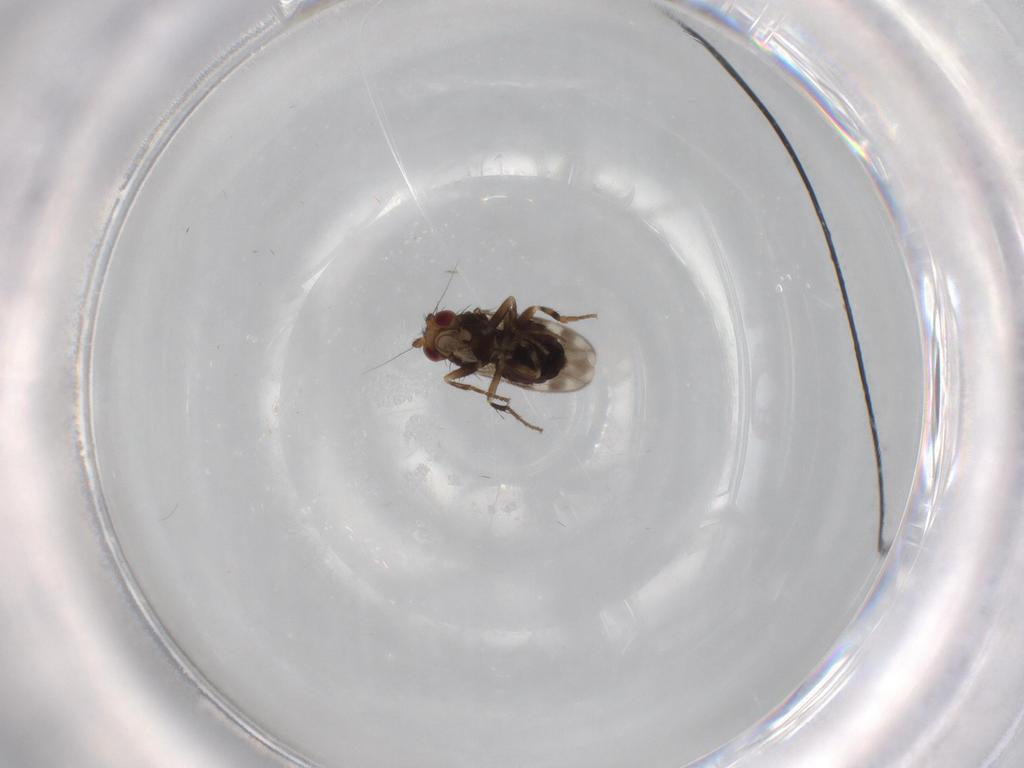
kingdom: Animalia
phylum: Arthropoda
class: Insecta
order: Diptera
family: Sphaeroceridae
